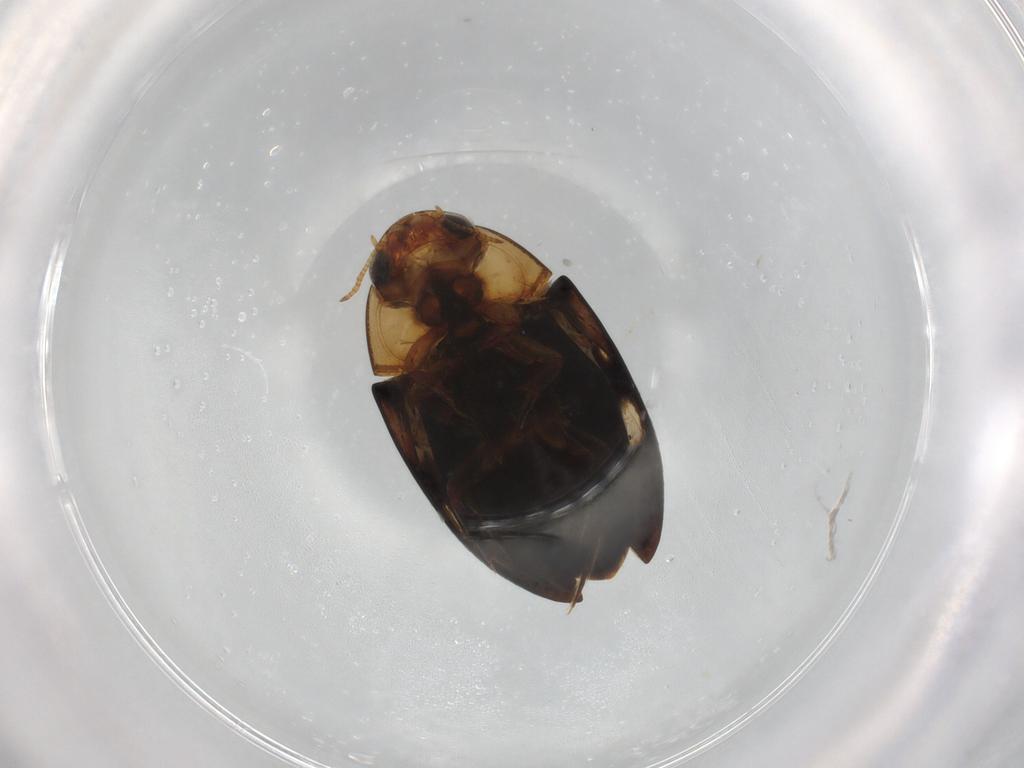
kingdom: Animalia
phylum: Arthropoda
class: Insecta
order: Coleoptera
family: Noteridae
